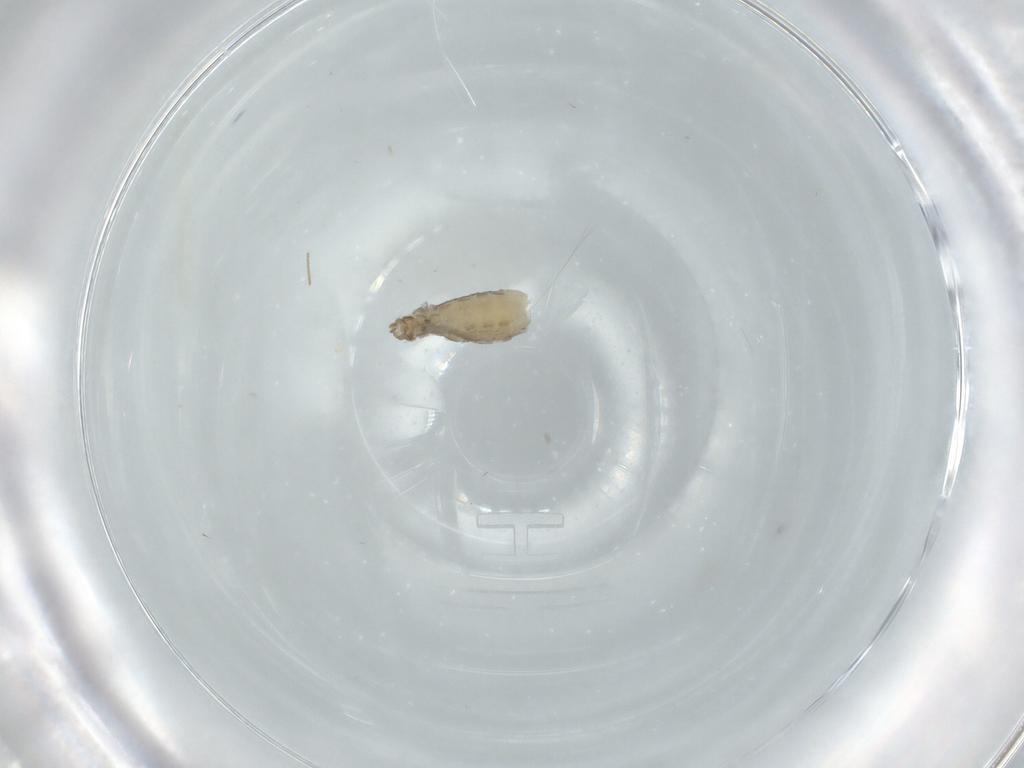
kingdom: Animalia
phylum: Arthropoda
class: Insecta
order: Diptera
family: Chironomidae
